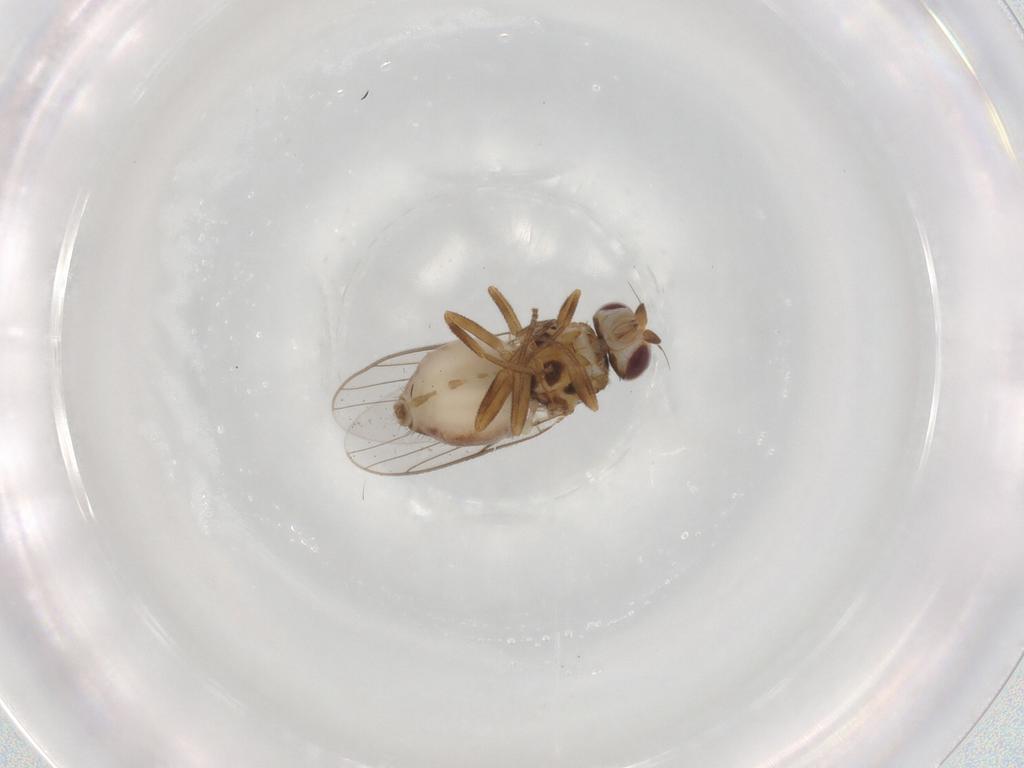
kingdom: Animalia
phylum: Arthropoda
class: Insecta
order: Diptera
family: Chloropidae
